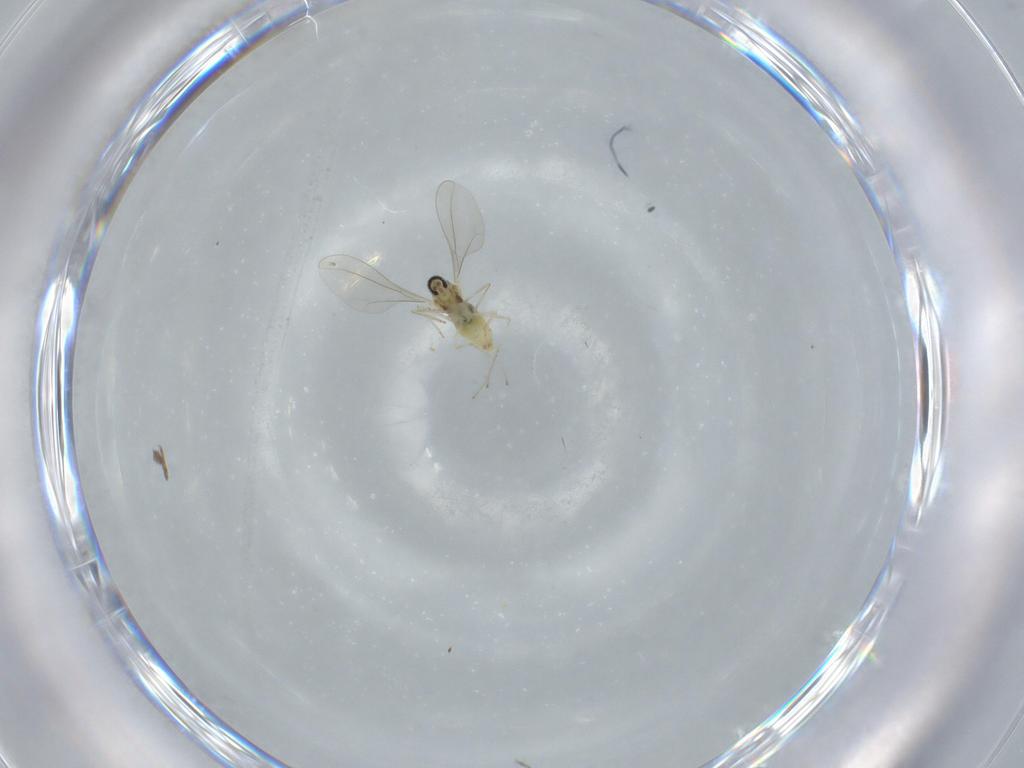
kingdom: Animalia
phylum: Arthropoda
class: Insecta
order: Diptera
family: Cecidomyiidae
